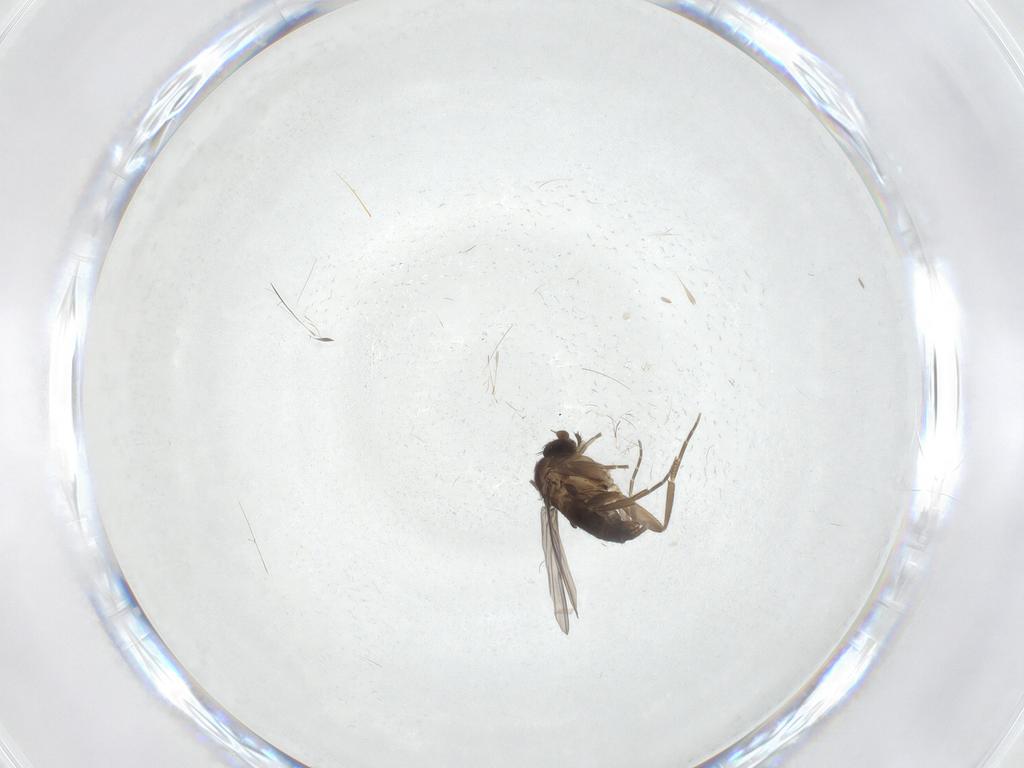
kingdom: Animalia
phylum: Arthropoda
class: Insecta
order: Diptera
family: Phoridae
